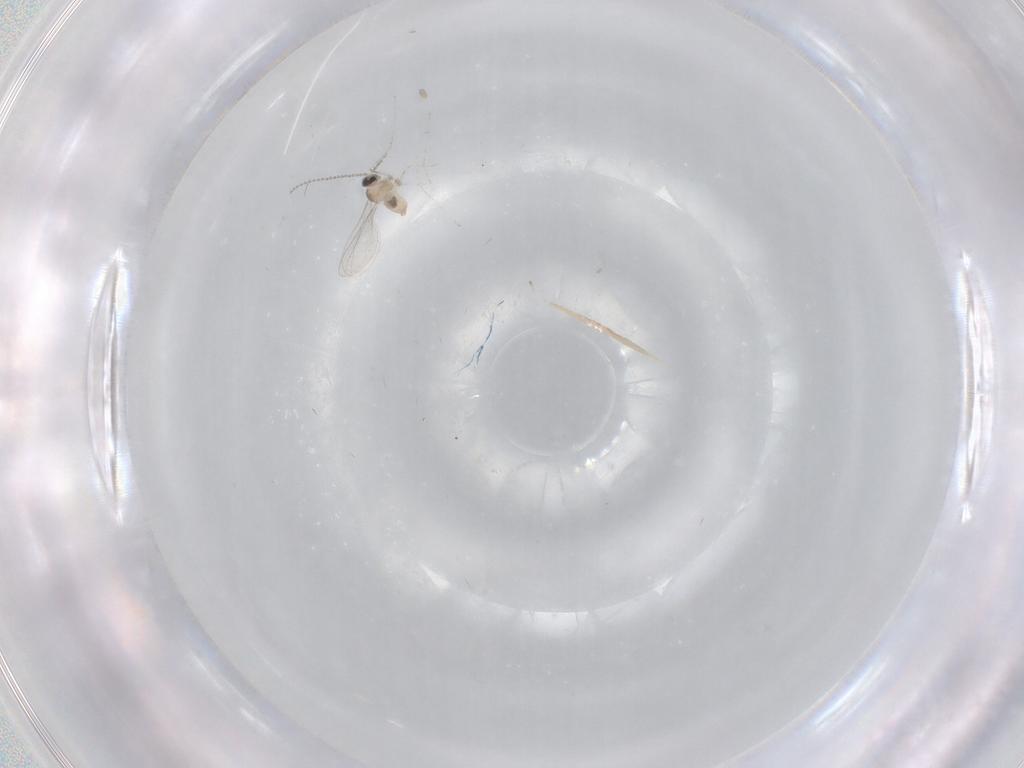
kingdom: Animalia
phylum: Arthropoda
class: Insecta
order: Diptera
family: Cecidomyiidae
